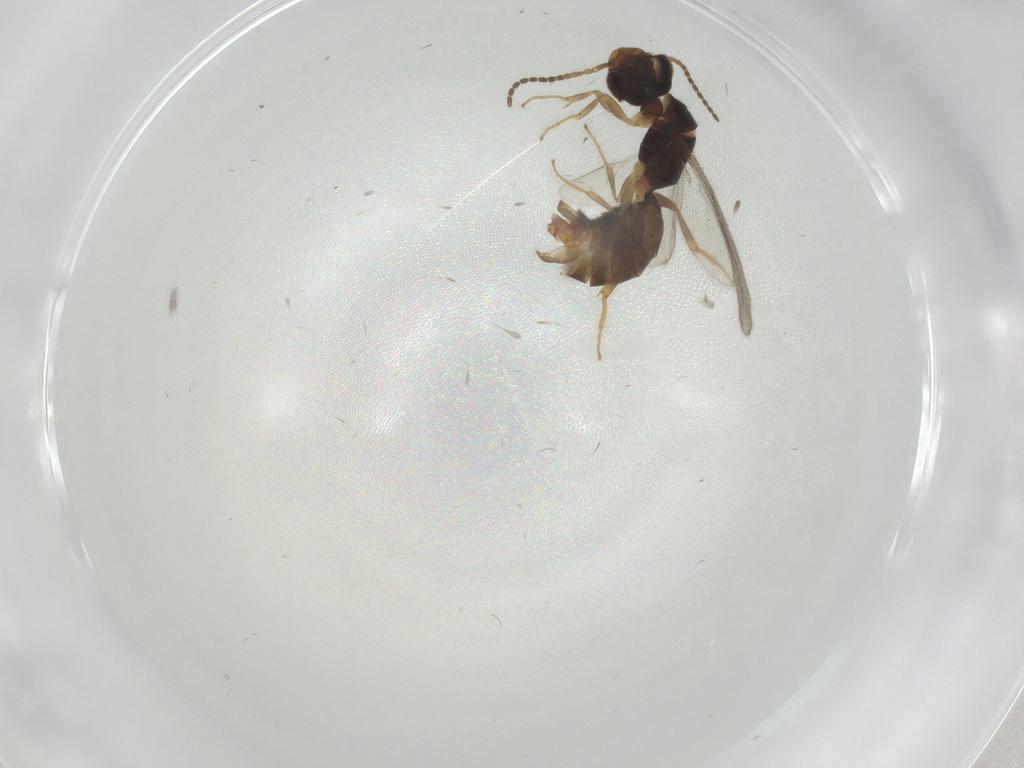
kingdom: Animalia
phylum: Arthropoda
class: Insecta
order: Hymenoptera
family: Bethylidae
